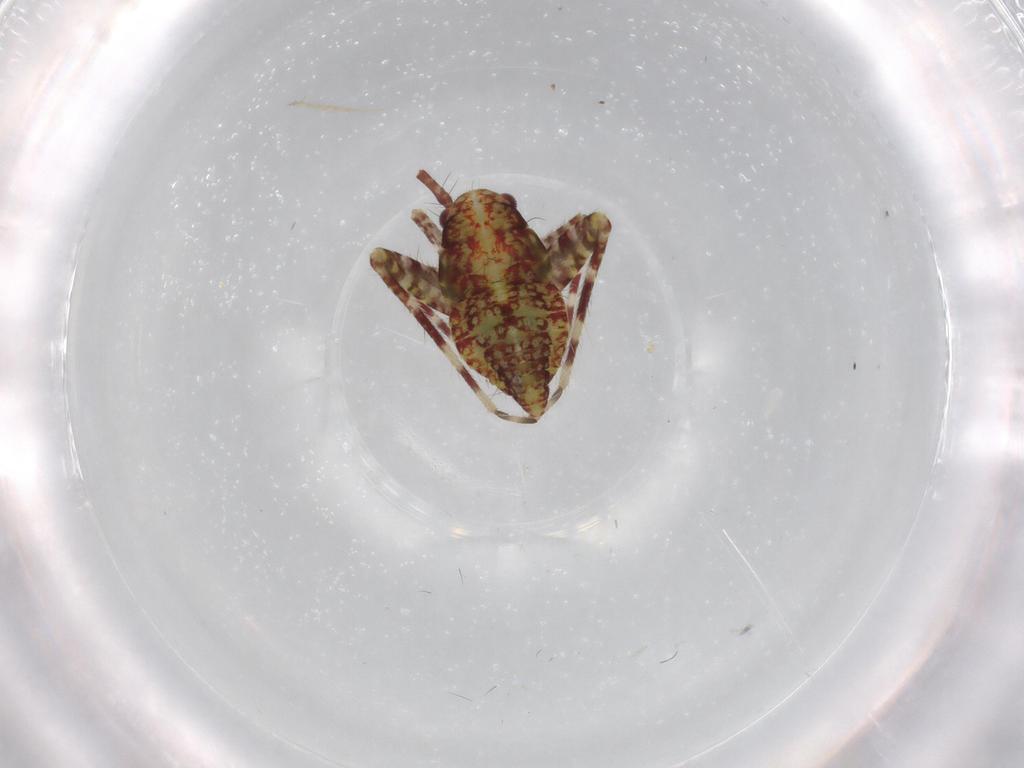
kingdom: Animalia
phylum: Arthropoda
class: Insecta
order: Hemiptera
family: Miridae
